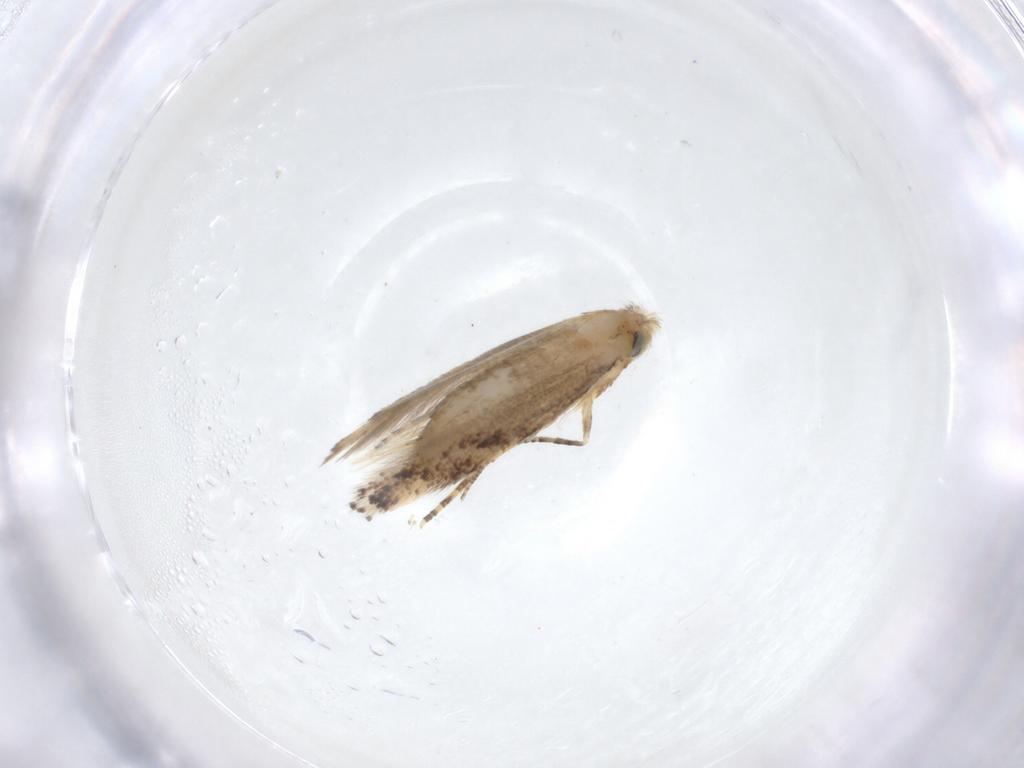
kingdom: Animalia
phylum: Arthropoda
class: Insecta
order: Lepidoptera
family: Bucculatricidae
